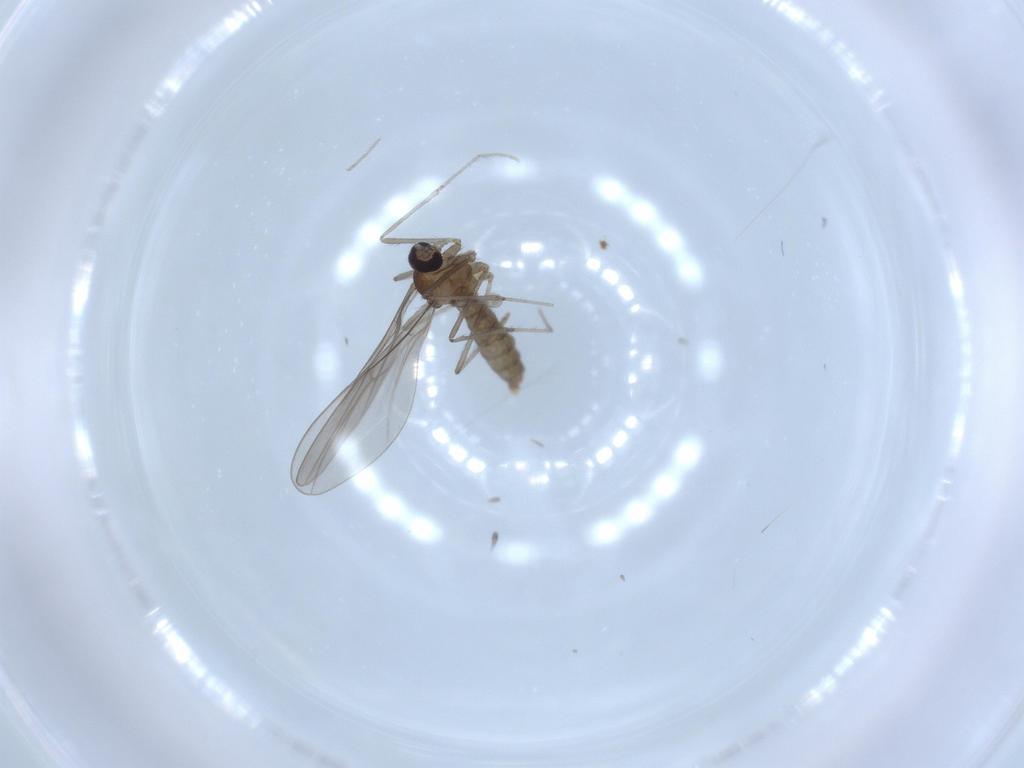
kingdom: Animalia
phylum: Arthropoda
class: Insecta
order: Diptera
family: Cecidomyiidae
